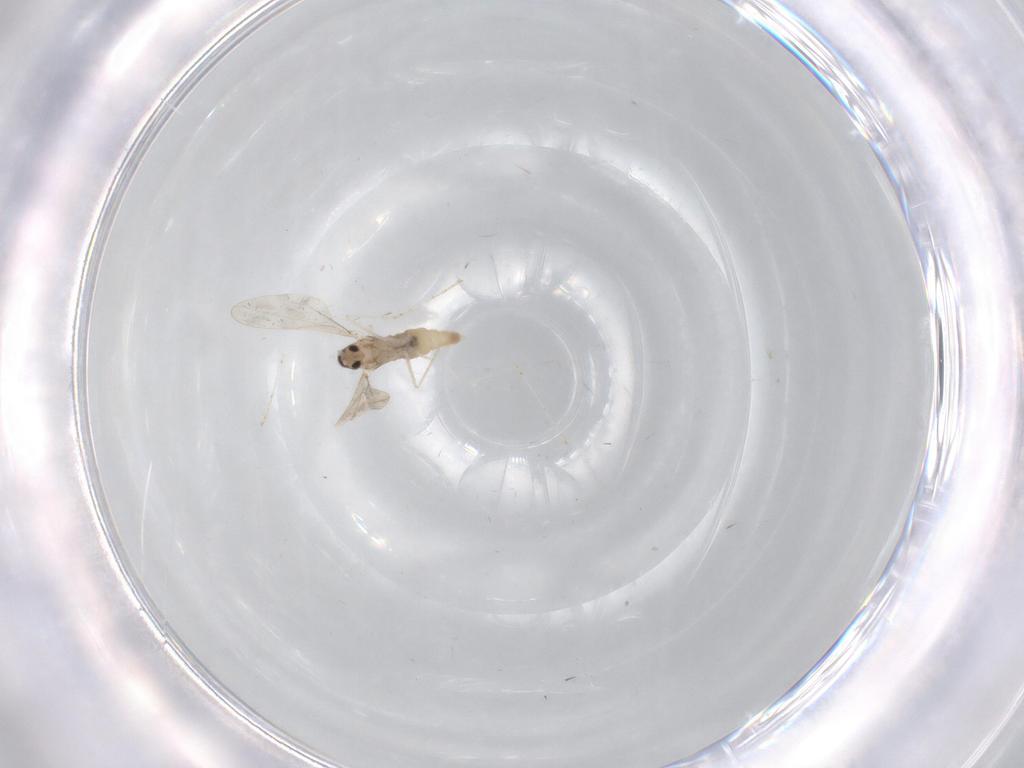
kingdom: Animalia
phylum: Arthropoda
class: Insecta
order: Diptera
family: Cecidomyiidae
